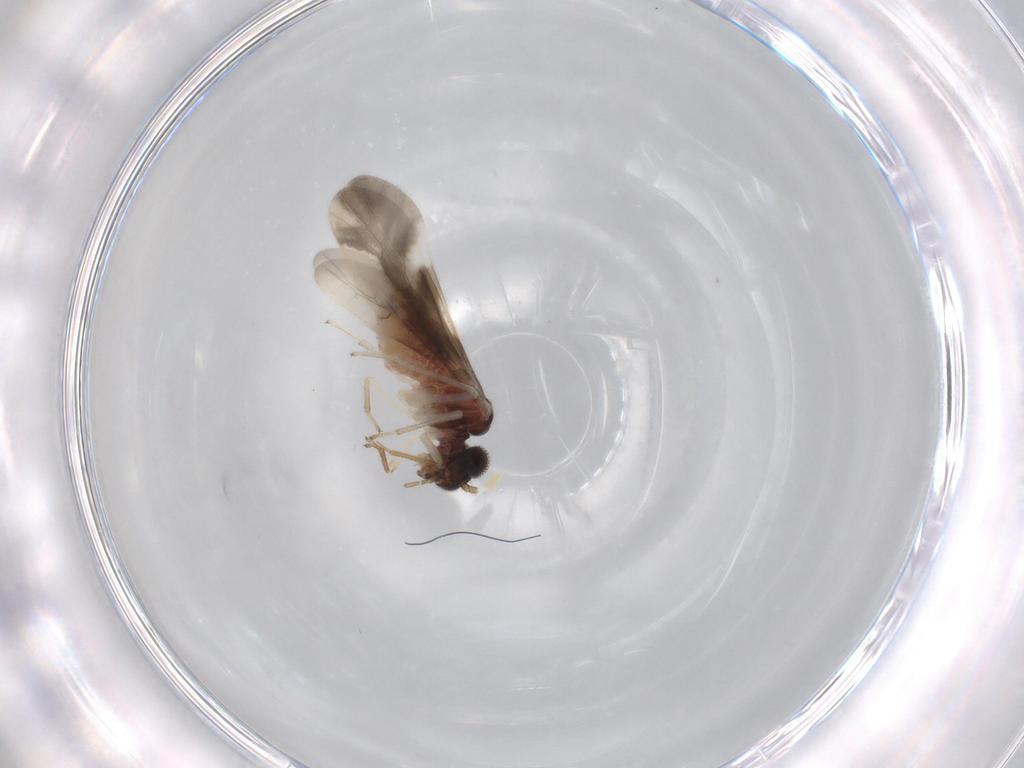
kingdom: Animalia
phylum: Arthropoda
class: Insecta
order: Psocodea
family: Caeciliusidae
